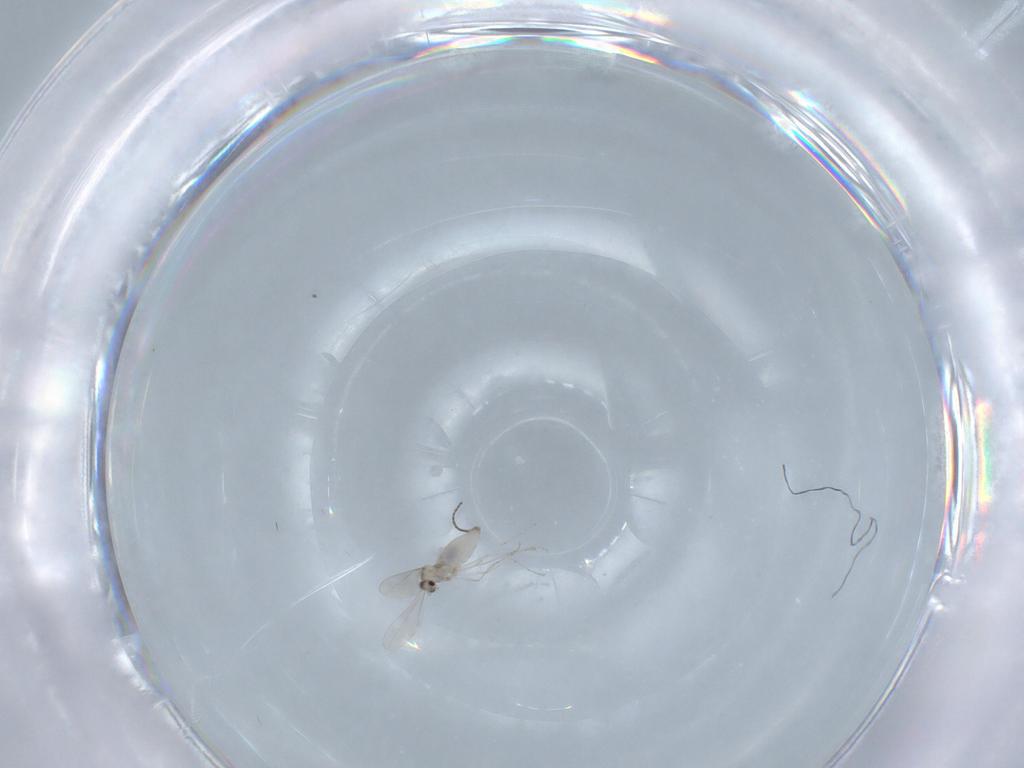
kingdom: Animalia
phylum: Arthropoda
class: Insecta
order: Diptera
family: Cecidomyiidae
